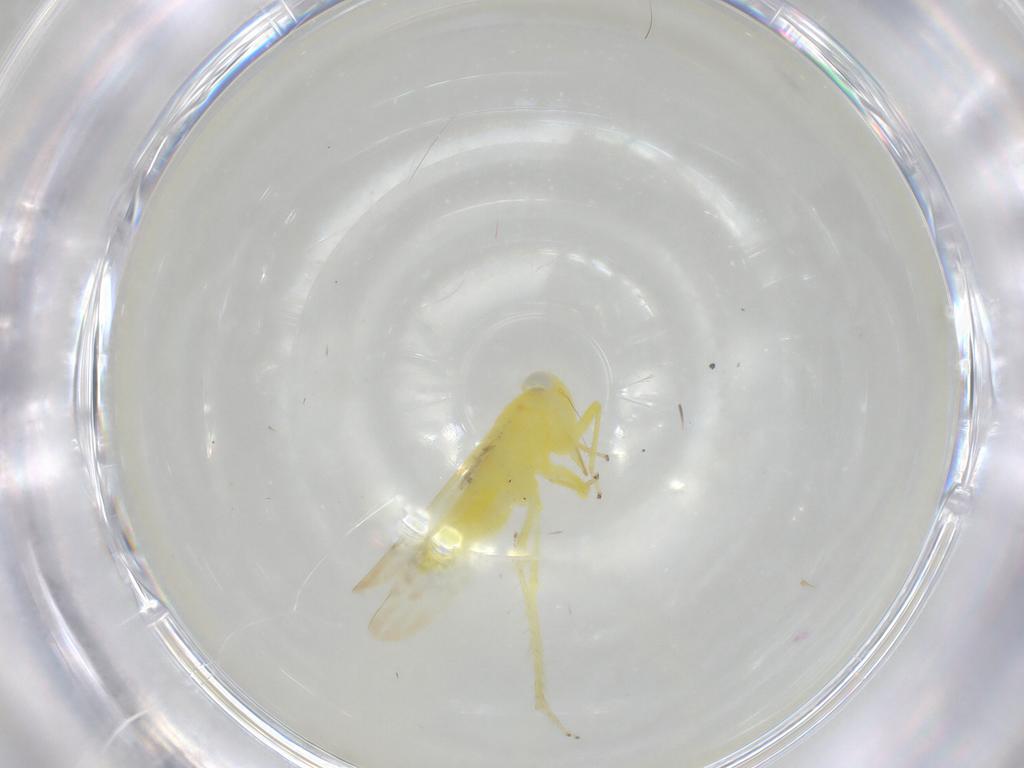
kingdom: Animalia
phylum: Arthropoda
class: Insecta
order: Hemiptera
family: Cicadellidae
